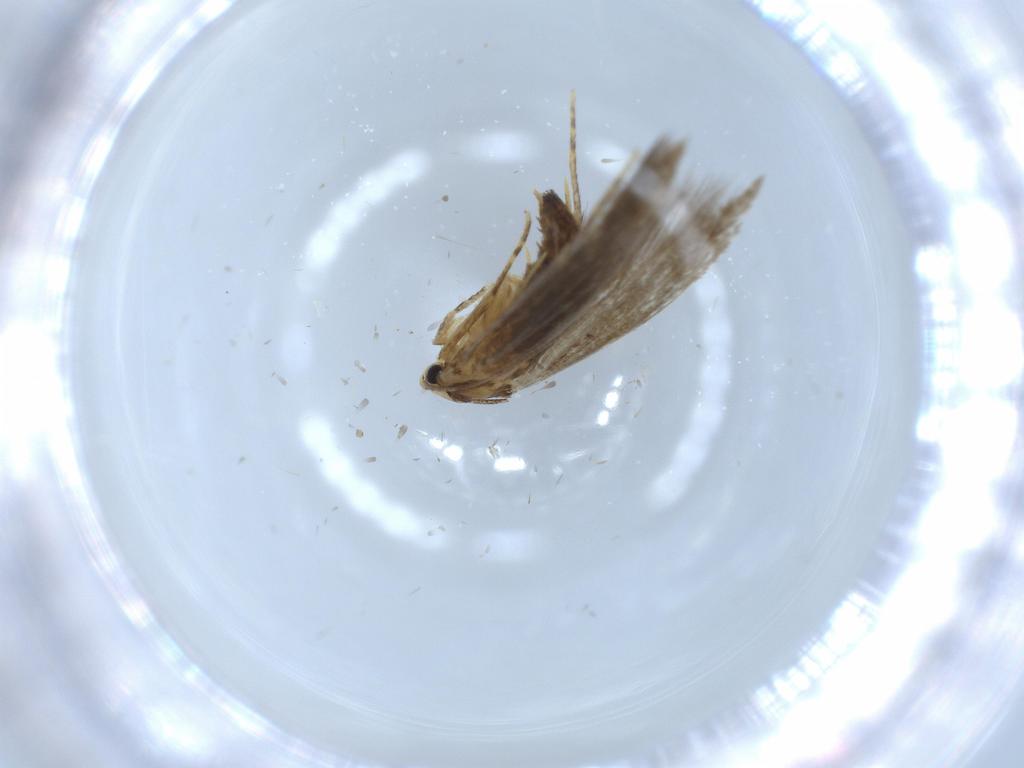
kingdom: Animalia
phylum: Arthropoda
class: Insecta
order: Lepidoptera
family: Tineidae
